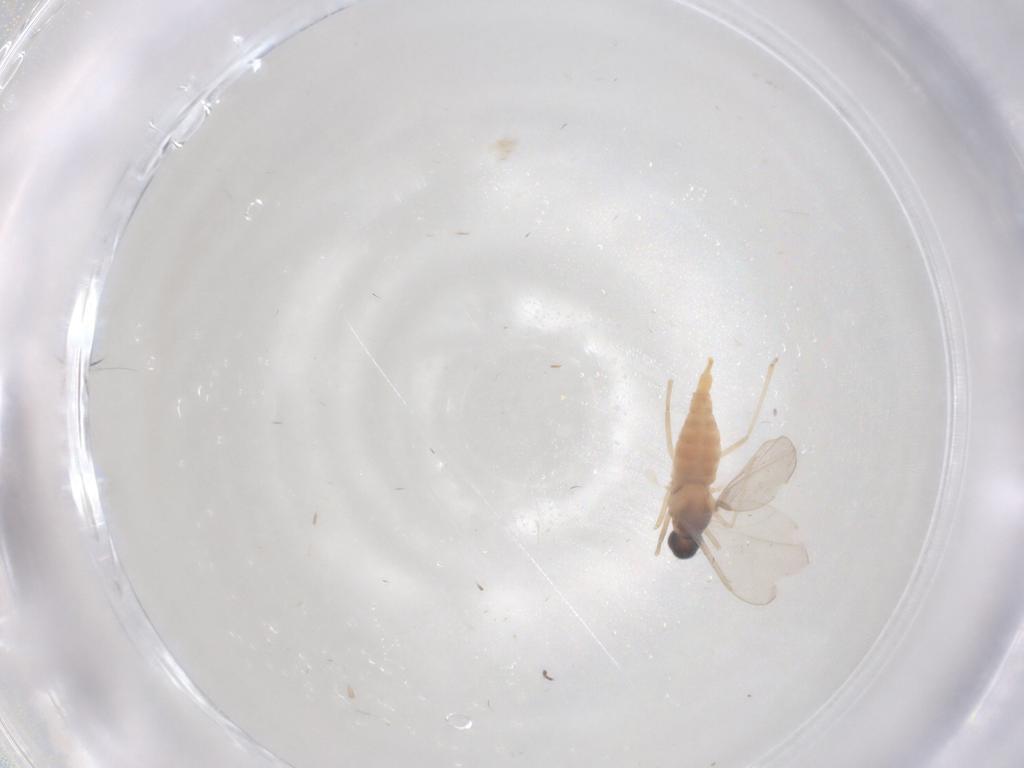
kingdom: Animalia
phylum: Arthropoda
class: Insecta
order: Diptera
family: Cecidomyiidae
